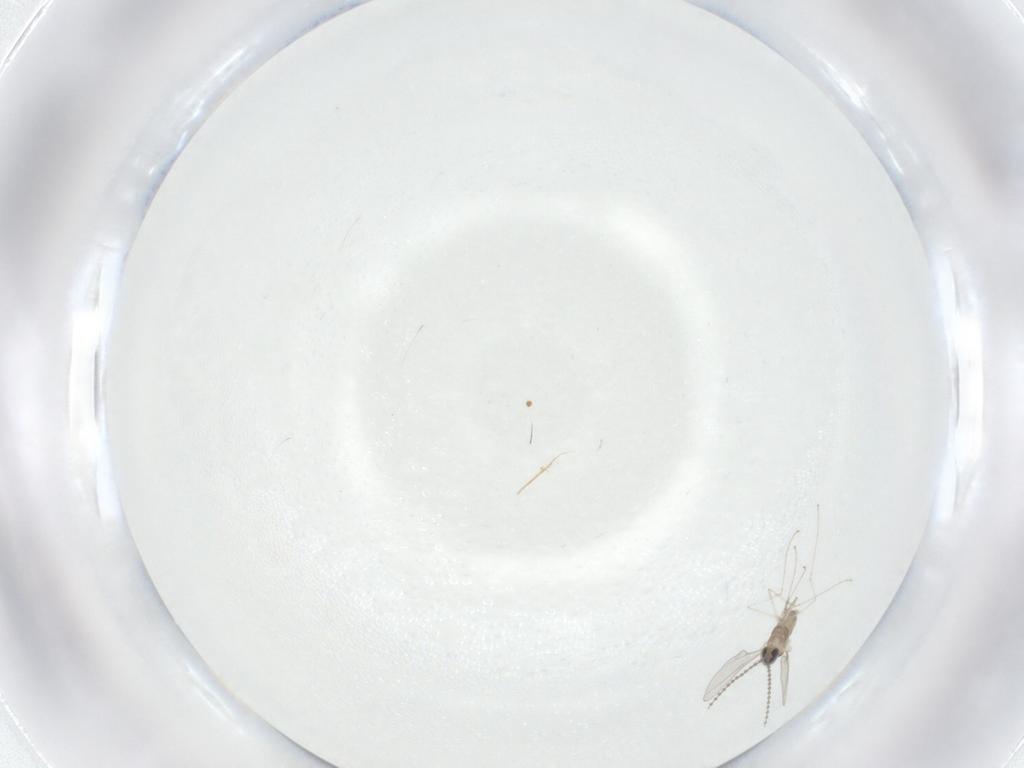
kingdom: Animalia
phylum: Arthropoda
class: Insecta
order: Diptera
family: Cecidomyiidae
